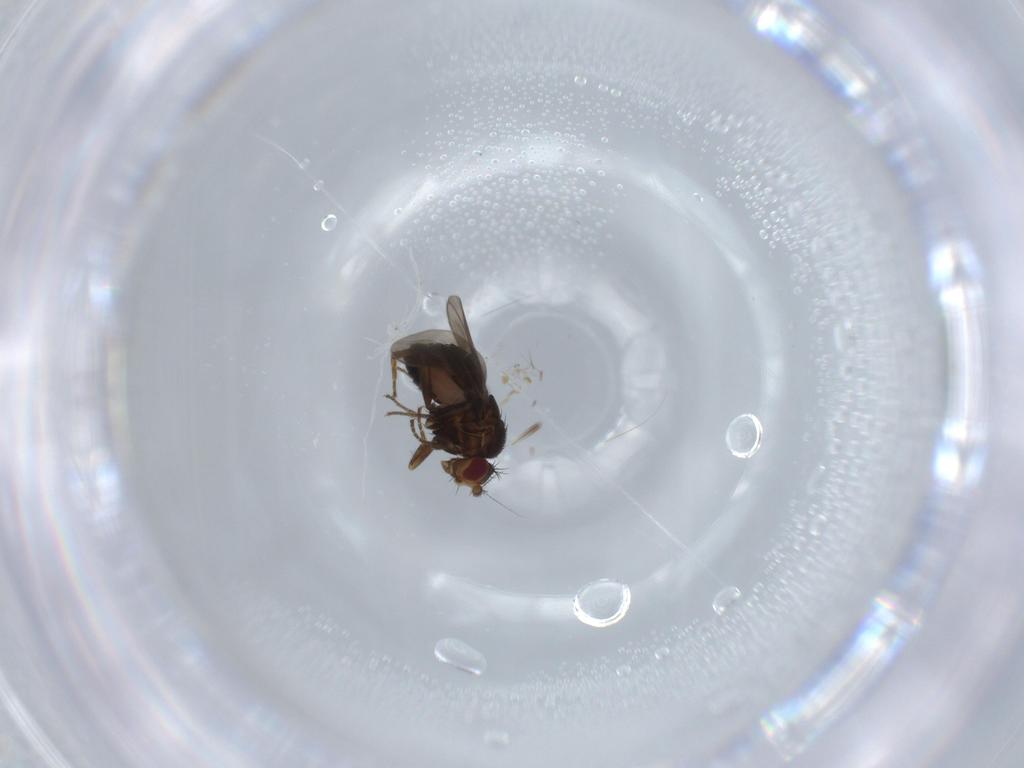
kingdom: Animalia
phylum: Arthropoda
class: Insecta
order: Diptera
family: Sphaeroceridae
